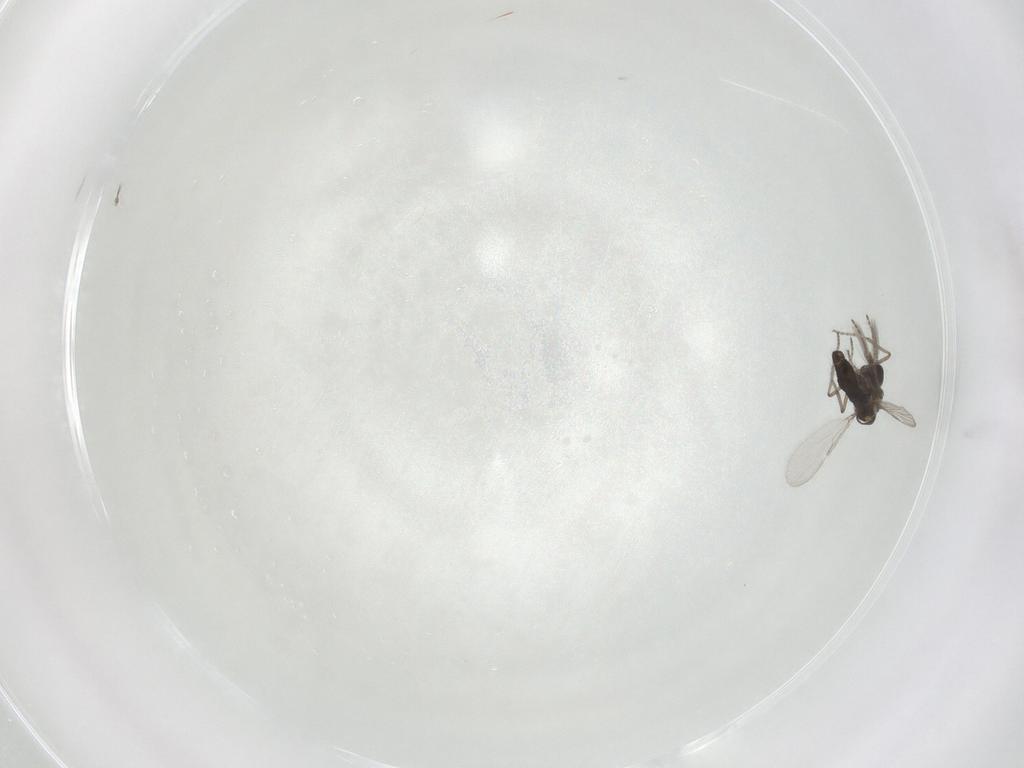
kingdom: Animalia
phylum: Arthropoda
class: Insecta
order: Diptera
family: Ceratopogonidae
